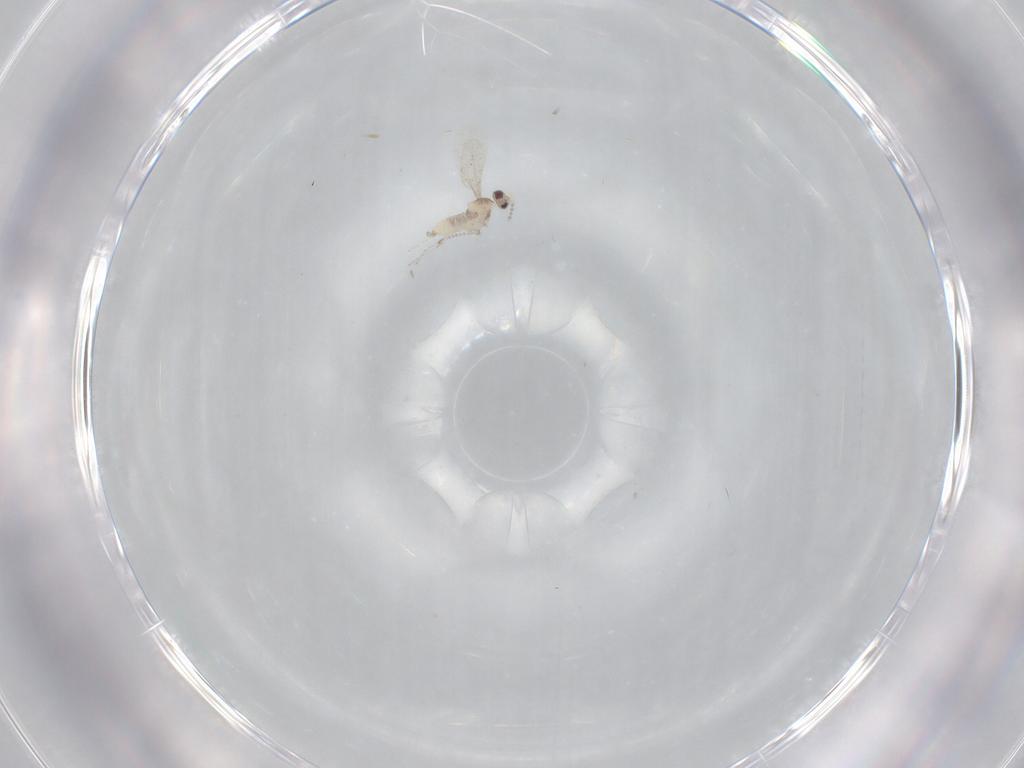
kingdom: Animalia
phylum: Arthropoda
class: Insecta
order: Diptera
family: Cecidomyiidae
